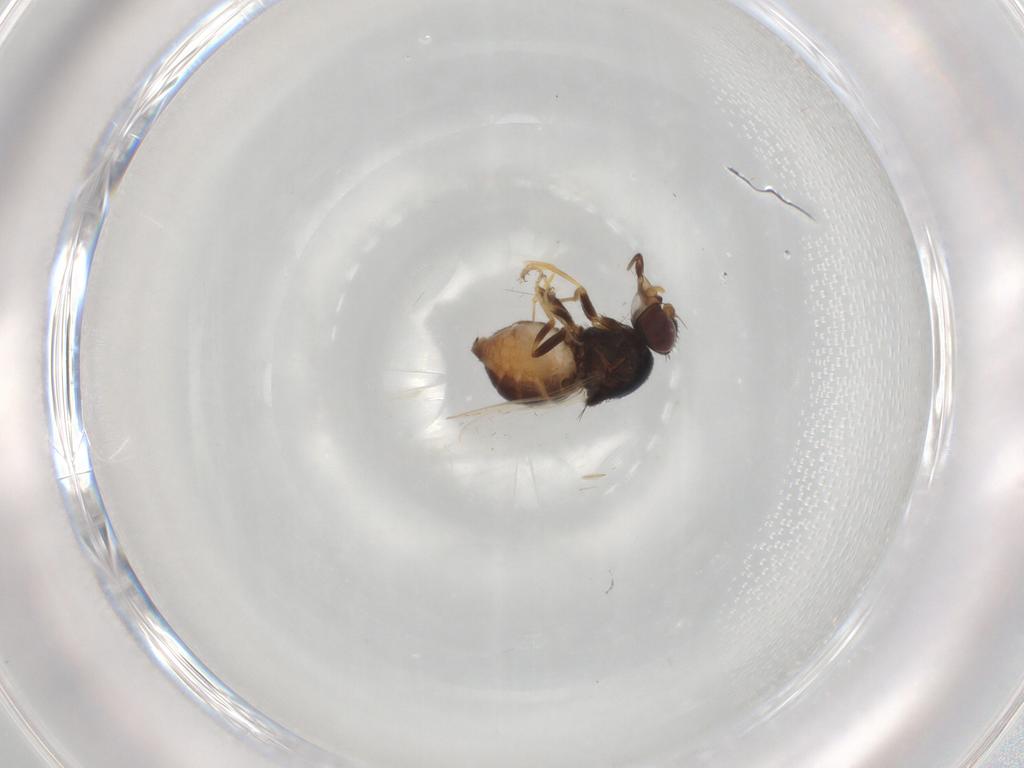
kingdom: Animalia
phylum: Arthropoda
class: Insecta
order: Diptera
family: Chloropidae
